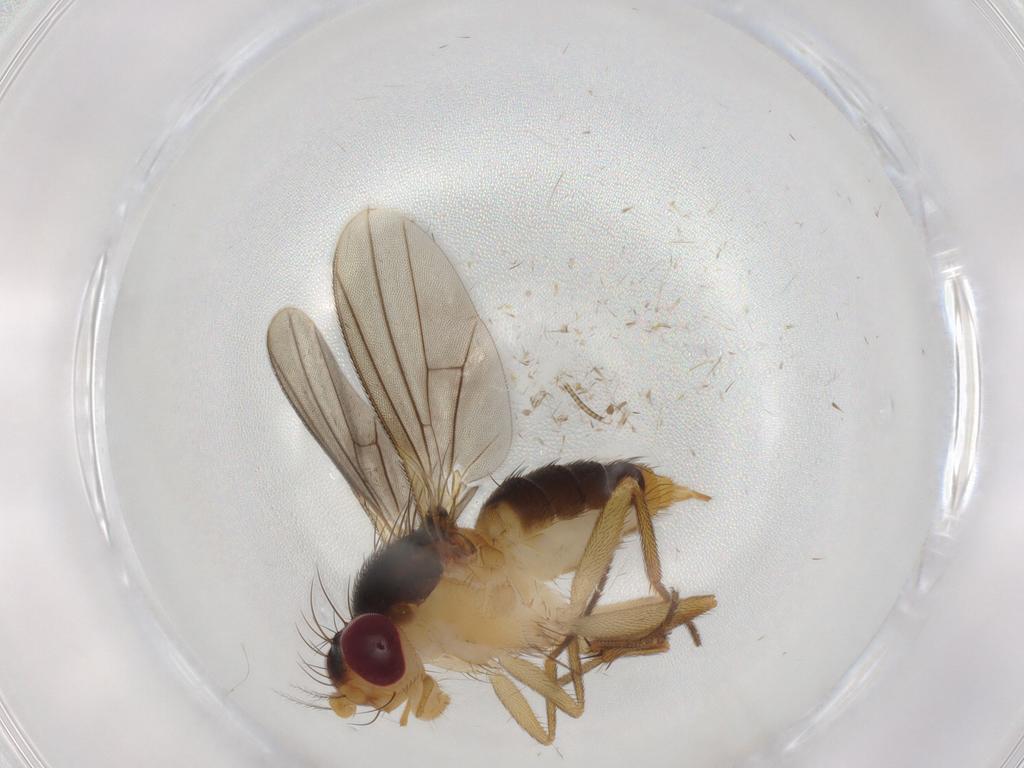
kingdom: Animalia
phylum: Arthropoda
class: Insecta
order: Diptera
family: Clusiidae
